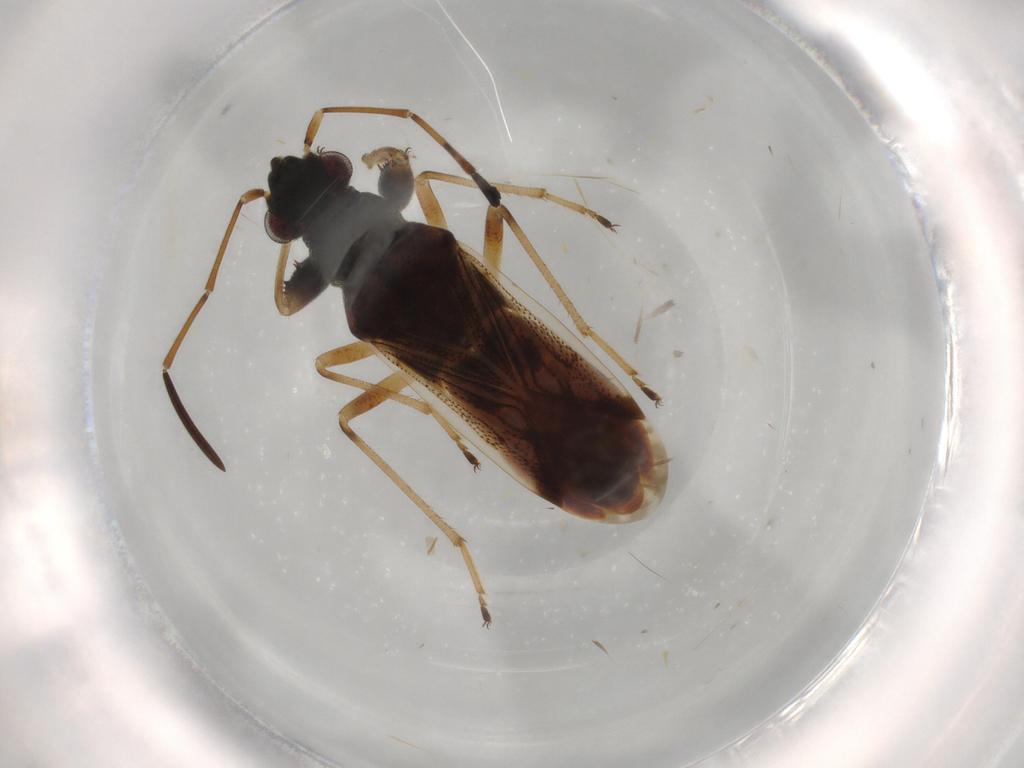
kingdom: Animalia
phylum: Arthropoda
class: Insecta
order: Hemiptera
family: Rhyparochromidae
